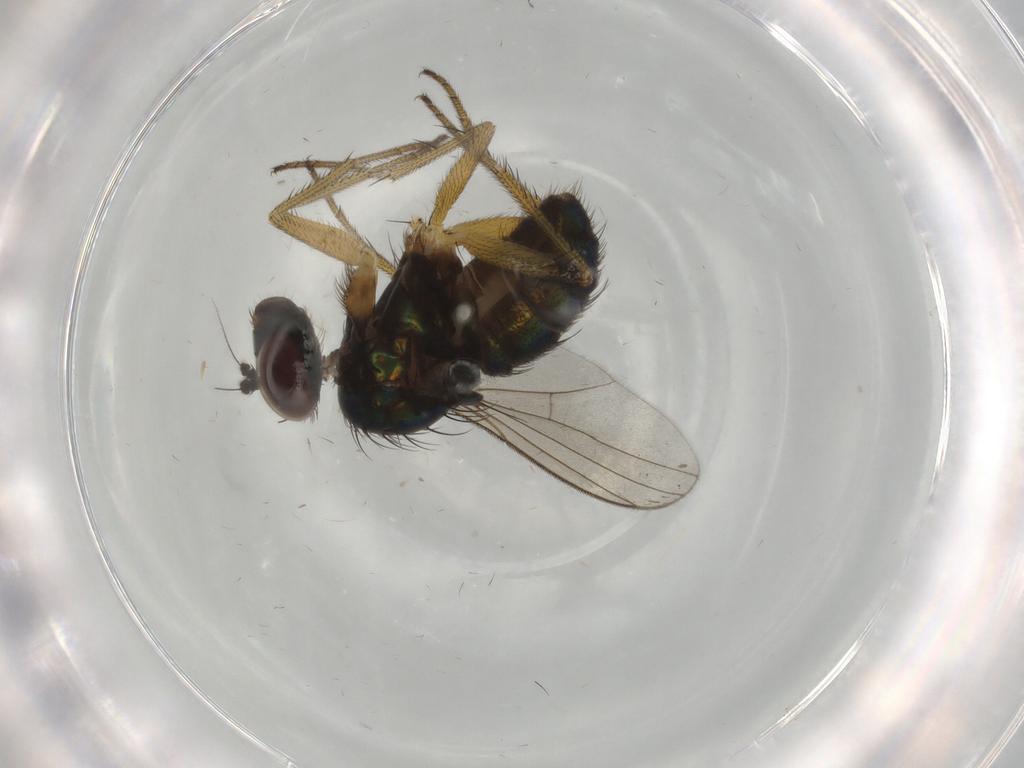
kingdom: Animalia
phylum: Arthropoda
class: Insecta
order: Diptera
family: Dolichopodidae
